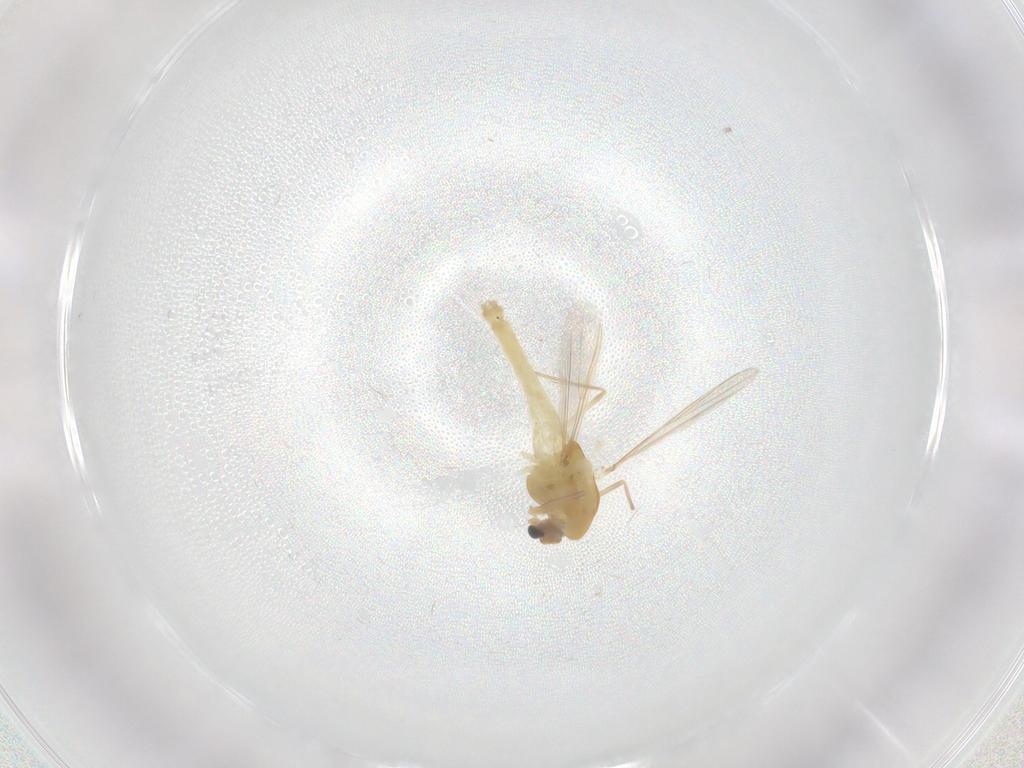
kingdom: Animalia
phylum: Arthropoda
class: Insecta
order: Diptera
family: Chironomidae
